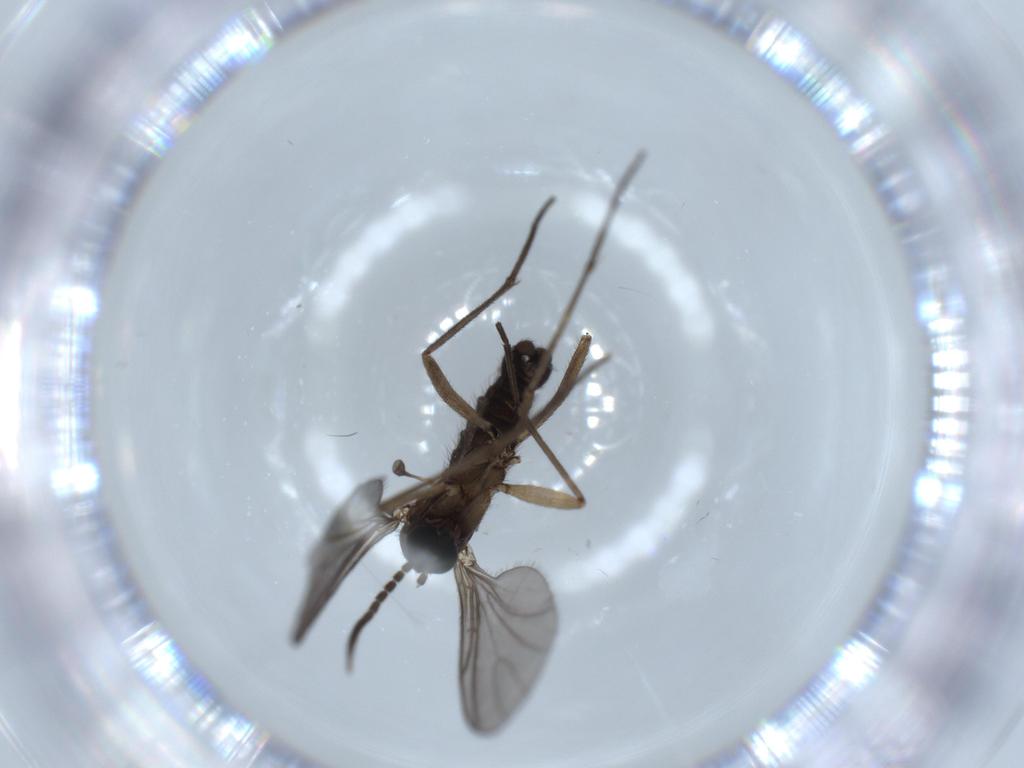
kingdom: Animalia
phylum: Arthropoda
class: Insecta
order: Diptera
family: Sciaridae
